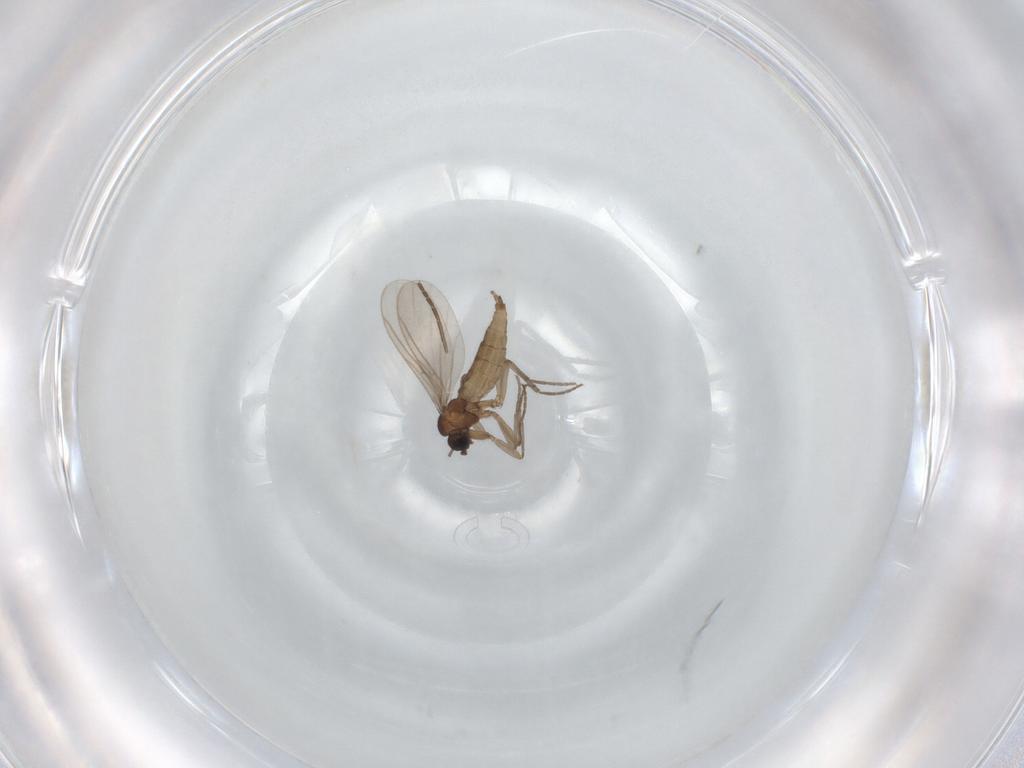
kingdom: Animalia
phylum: Arthropoda
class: Insecta
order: Diptera
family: Sciaridae
